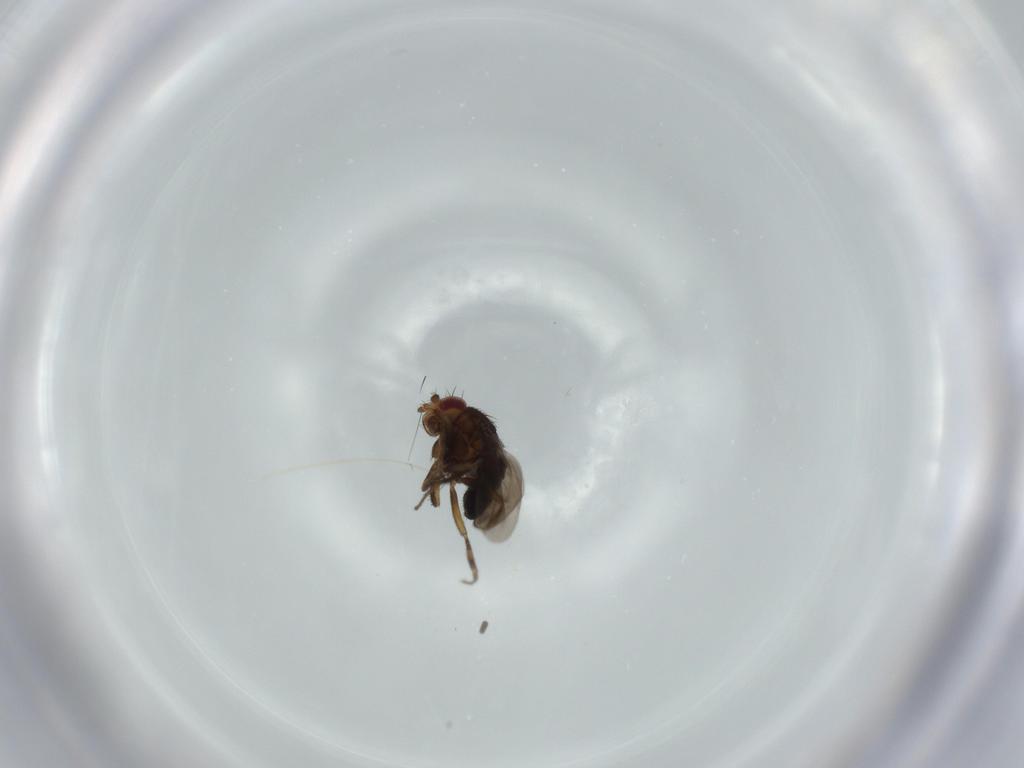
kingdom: Animalia
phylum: Arthropoda
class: Insecta
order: Diptera
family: Sphaeroceridae
